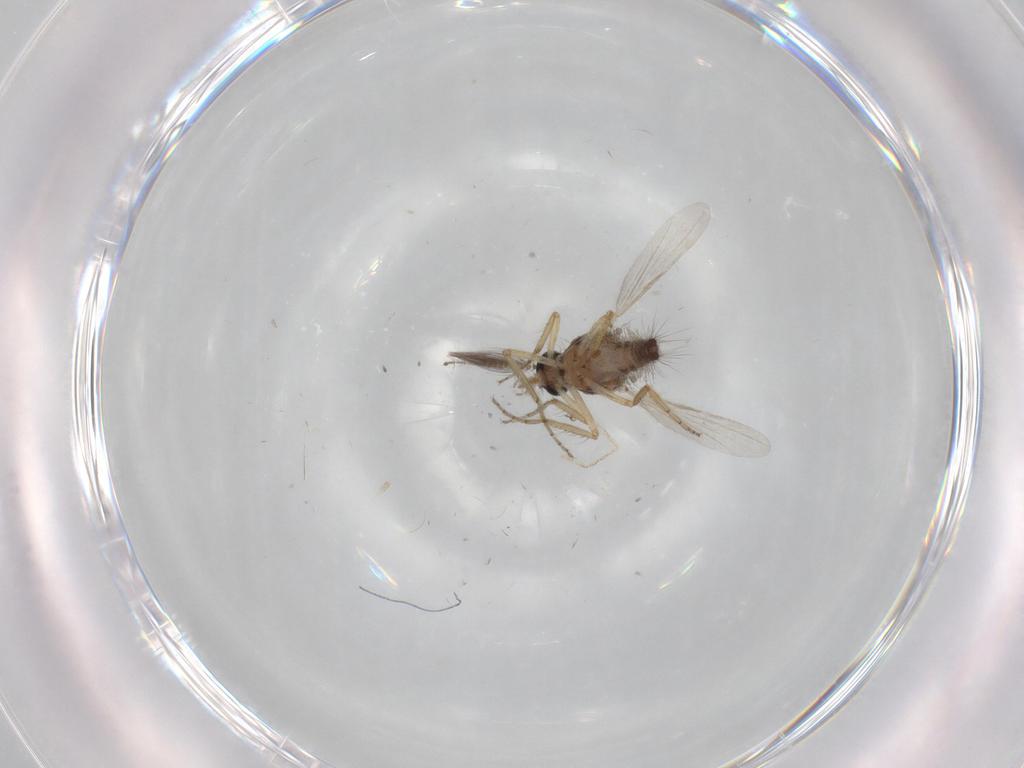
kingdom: Animalia
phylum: Arthropoda
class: Insecta
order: Diptera
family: Ceratopogonidae
